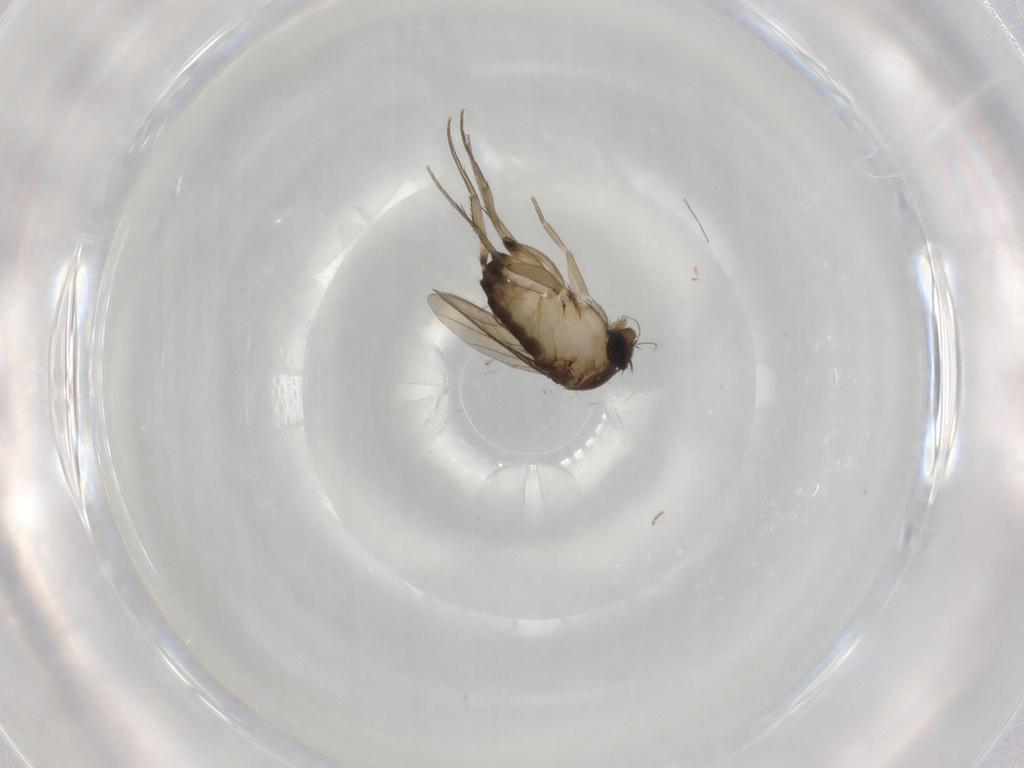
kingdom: Animalia
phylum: Arthropoda
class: Insecta
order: Diptera
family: Phoridae
